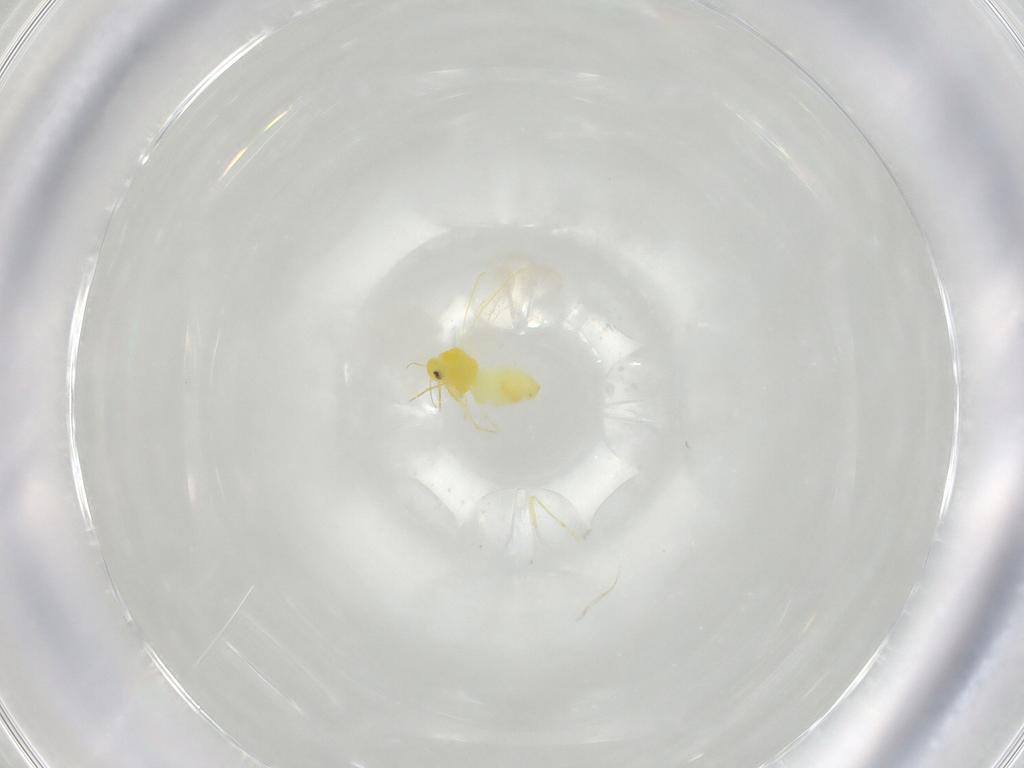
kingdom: Animalia
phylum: Arthropoda
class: Insecta
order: Hemiptera
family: Aleyrodidae
